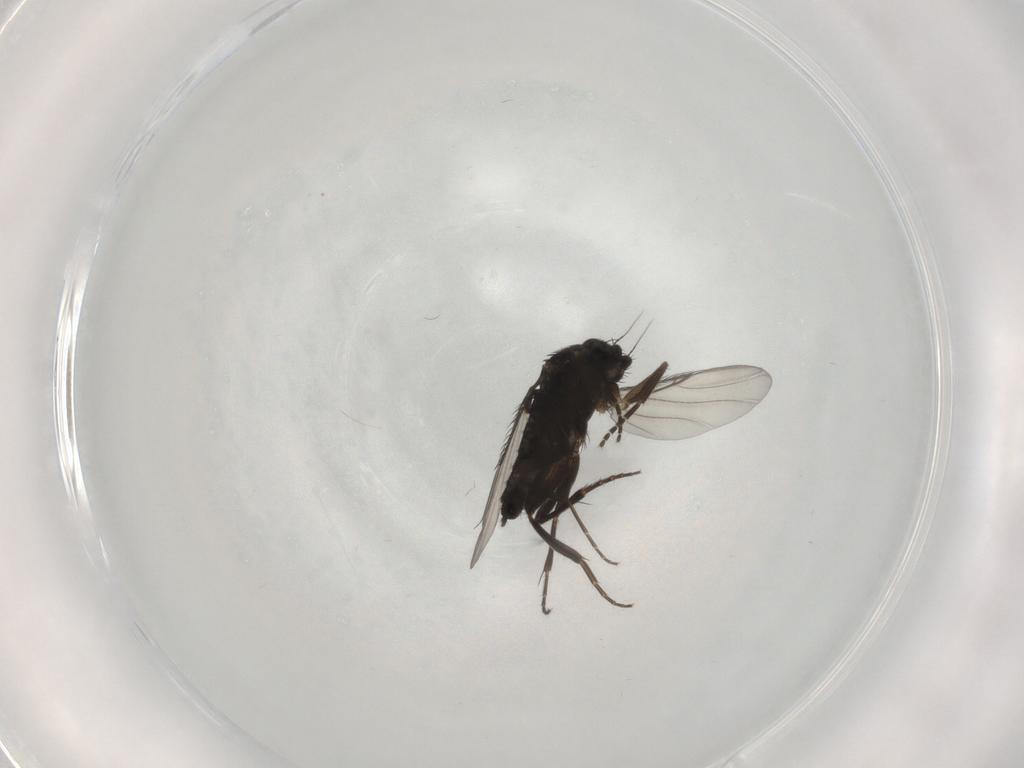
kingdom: Animalia
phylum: Arthropoda
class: Insecta
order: Diptera
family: Phoridae
